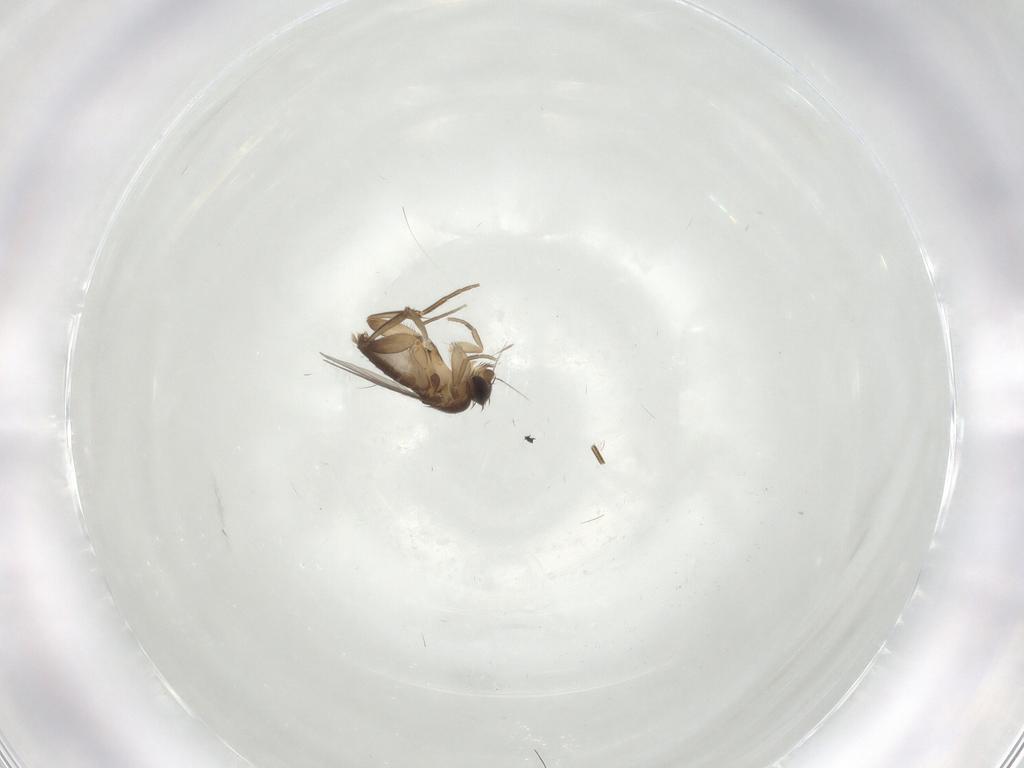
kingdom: Animalia
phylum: Arthropoda
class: Insecta
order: Diptera
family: Phoridae
